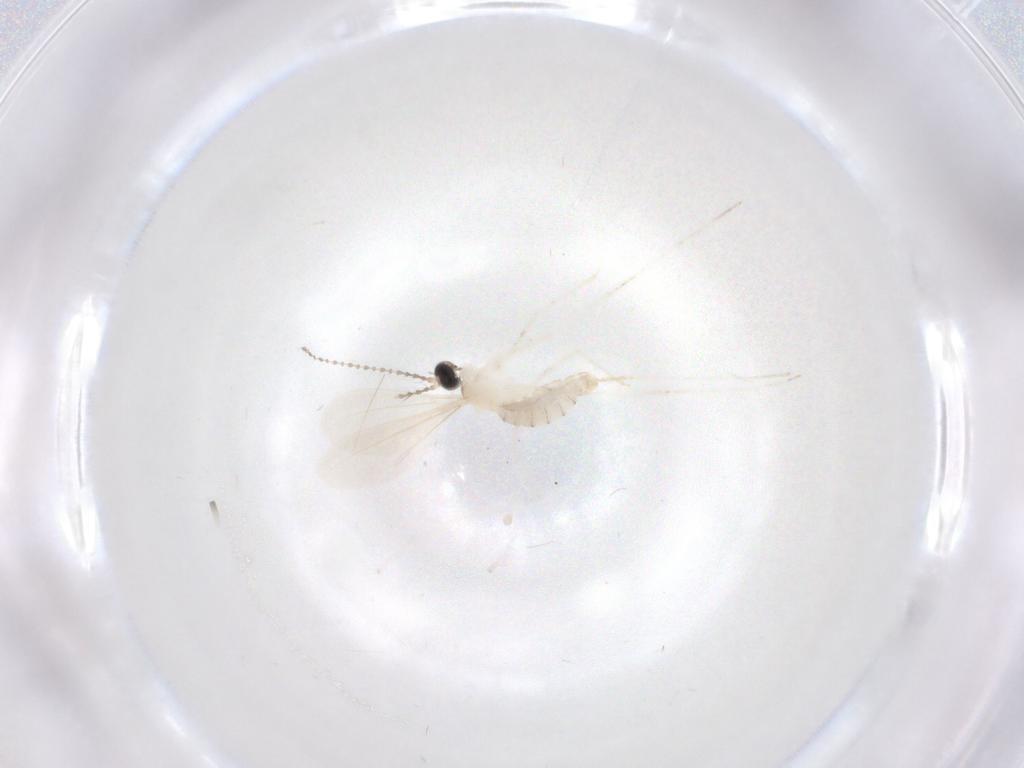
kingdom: Animalia
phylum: Arthropoda
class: Insecta
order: Diptera
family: Cecidomyiidae
